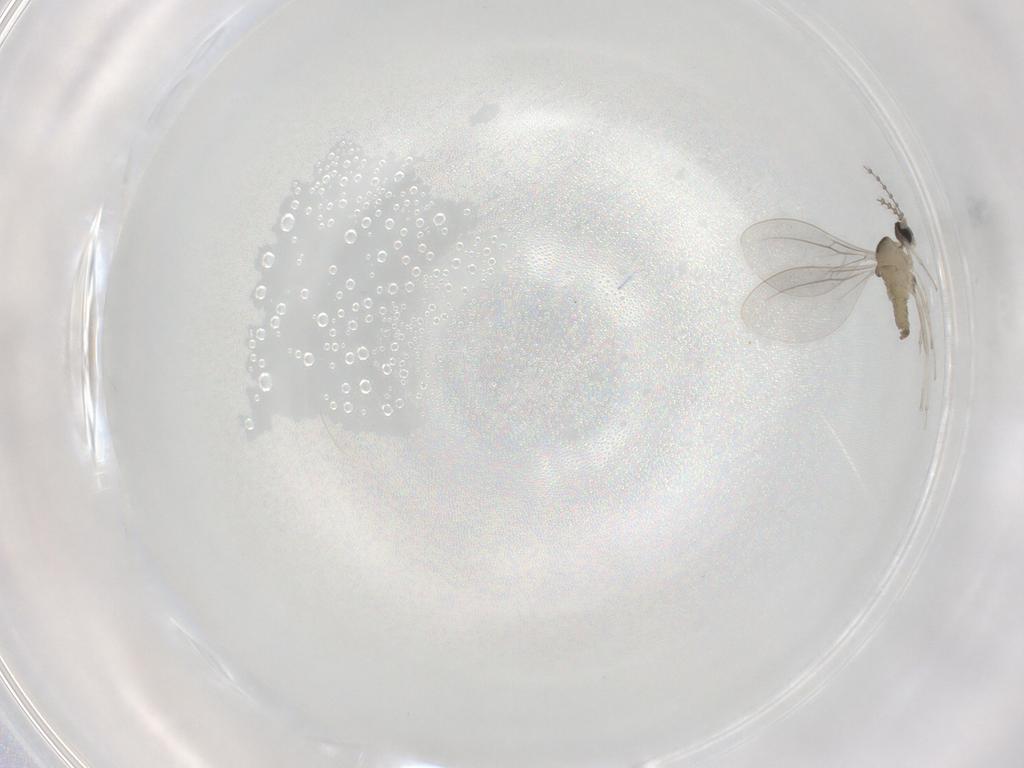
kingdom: Animalia
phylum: Arthropoda
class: Insecta
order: Diptera
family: Cecidomyiidae
